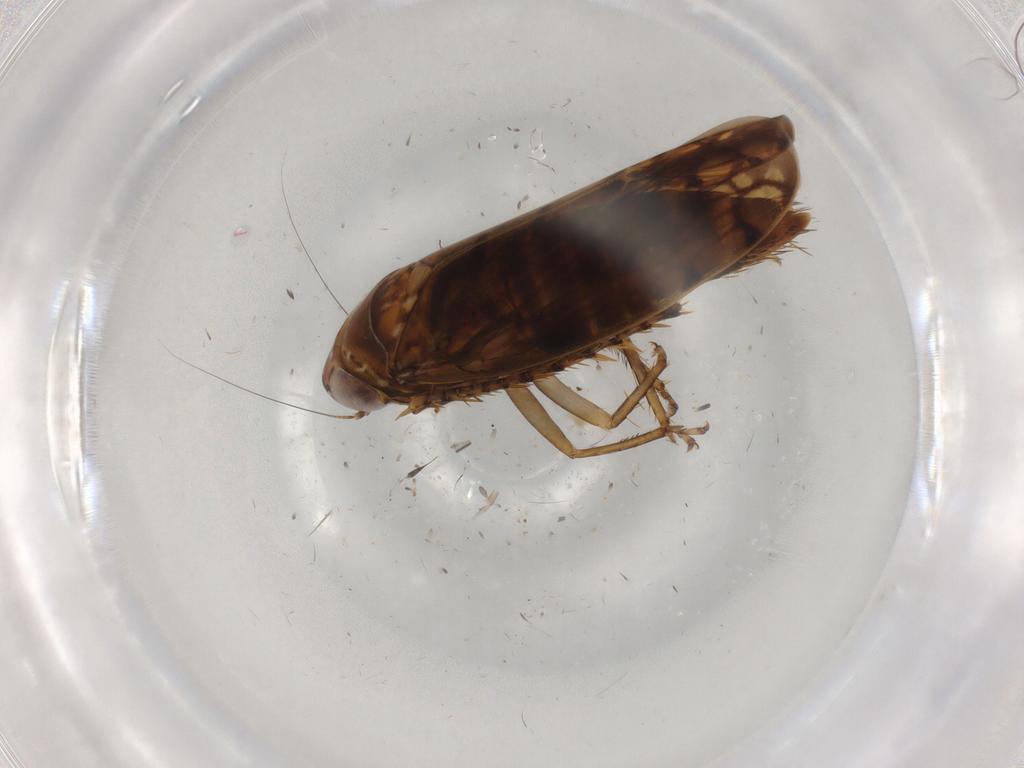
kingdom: Animalia
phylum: Arthropoda
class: Insecta
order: Hemiptera
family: Cicadellidae
